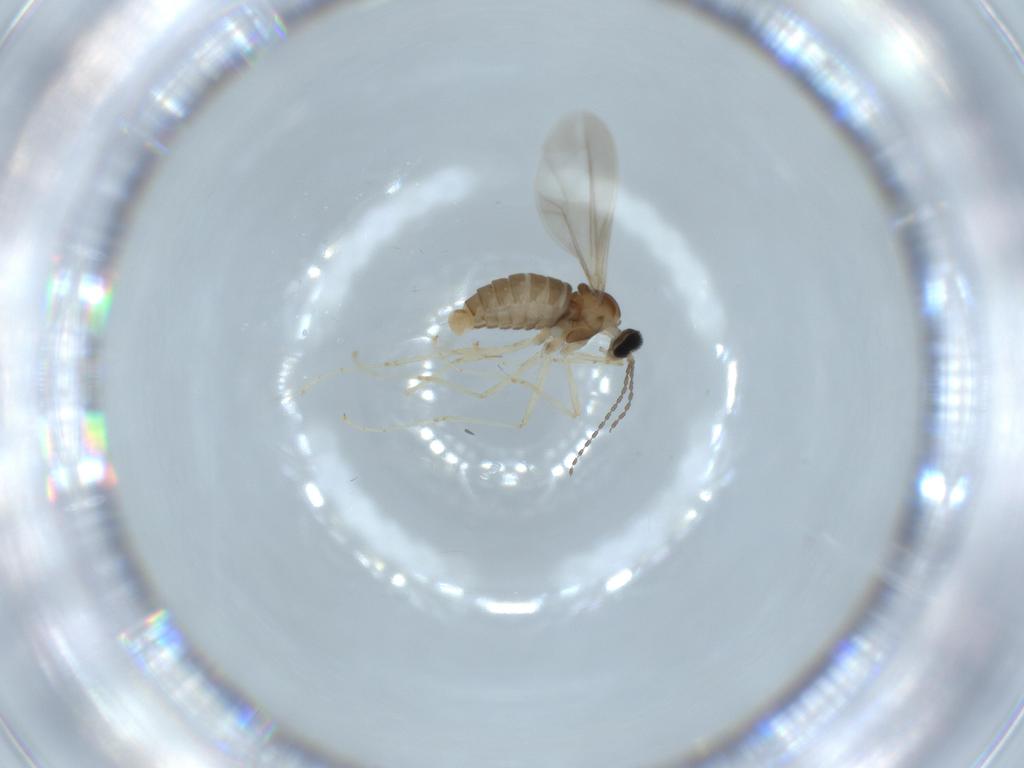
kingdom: Animalia
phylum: Arthropoda
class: Insecta
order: Diptera
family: Cecidomyiidae
